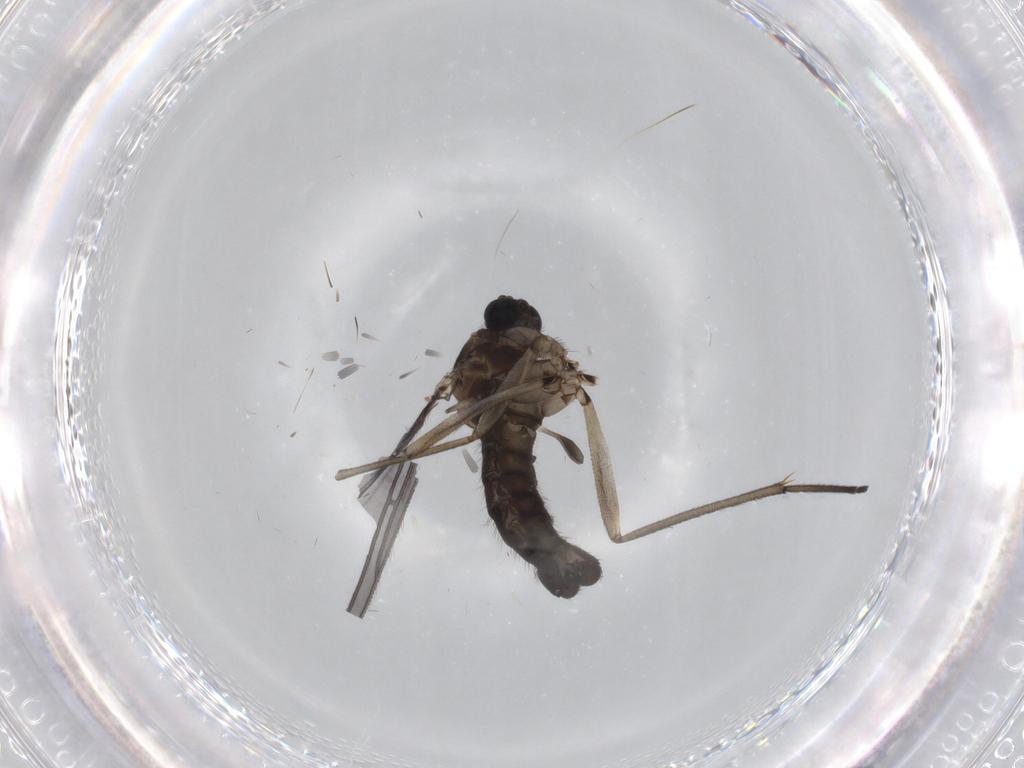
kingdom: Animalia
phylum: Arthropoda
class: Insecta
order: Diptera
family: Sciaridae
